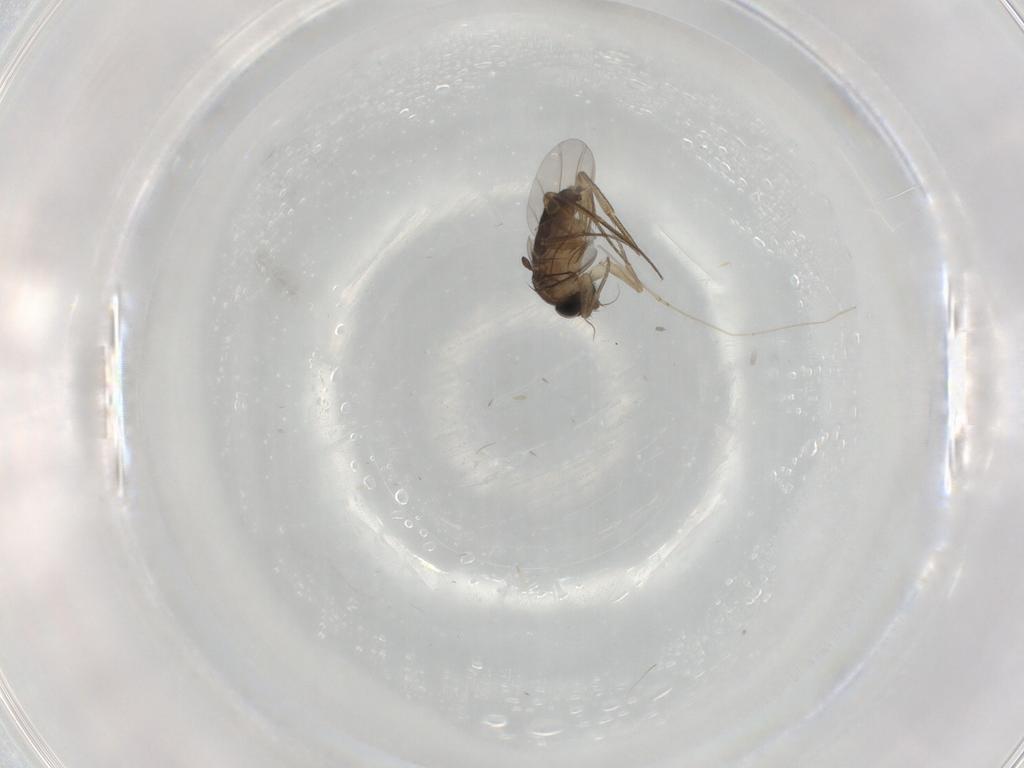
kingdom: Animalia
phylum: Arthropoda
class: Insecta
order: Diptera
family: Phoridae
